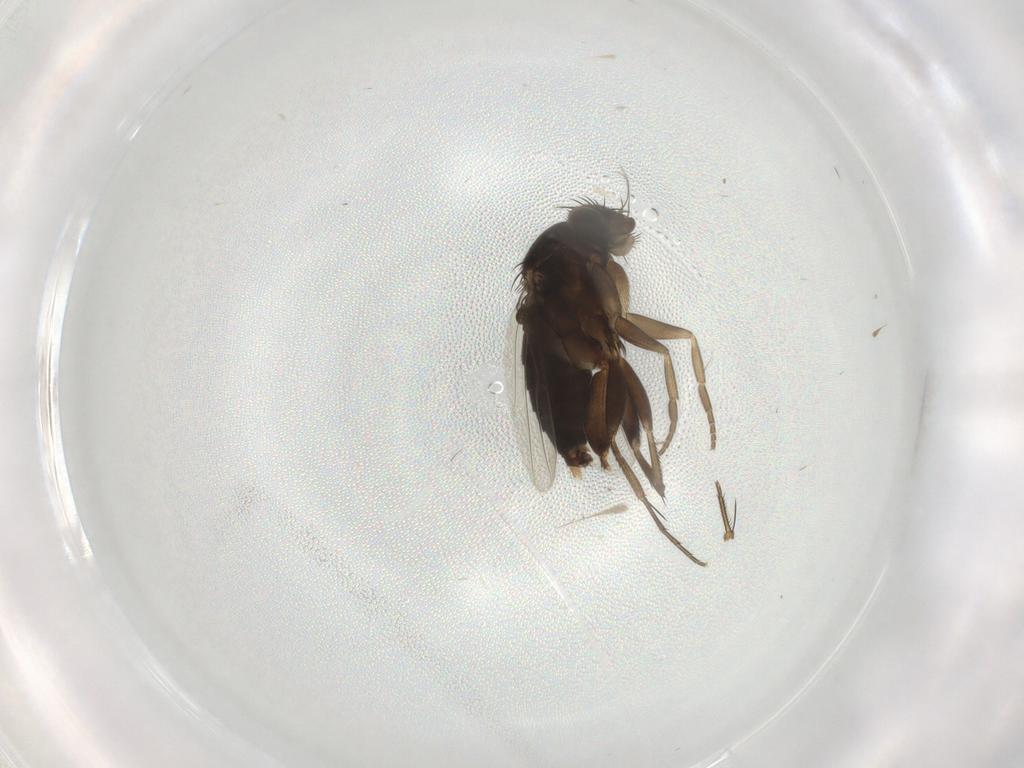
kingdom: Animalia
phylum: Arthropoda
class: Insecta
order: Diptera
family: Phoridae
